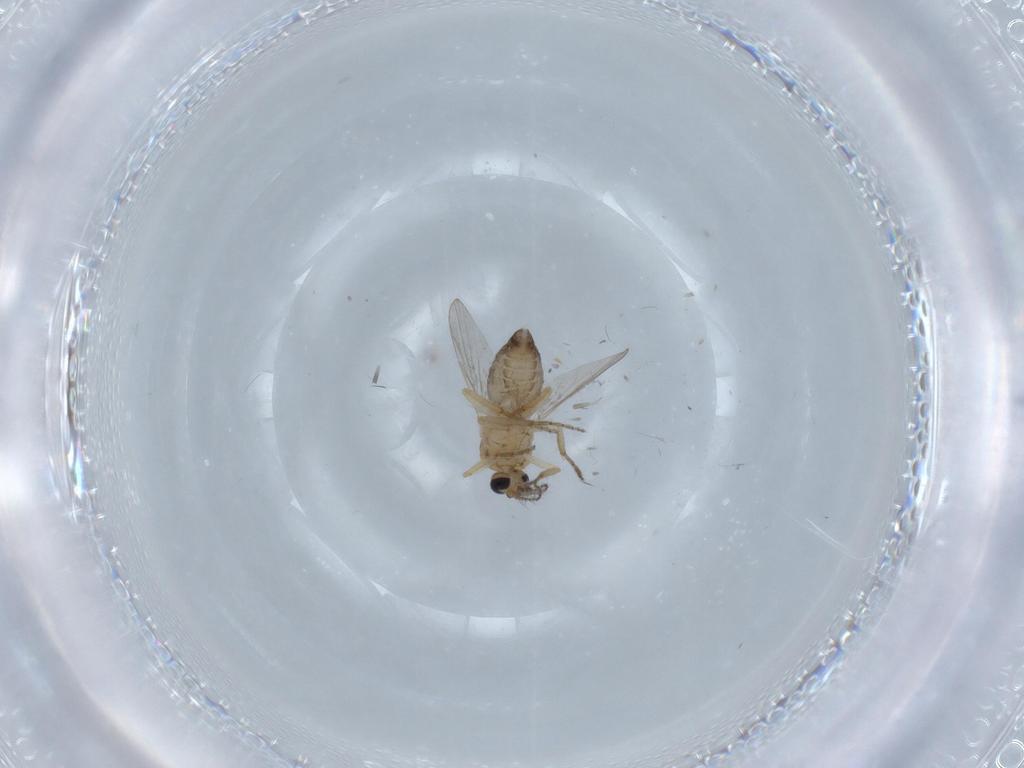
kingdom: Animalia
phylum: Arthropoda
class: Insecta
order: Diptera
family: Ceratopogonidae
